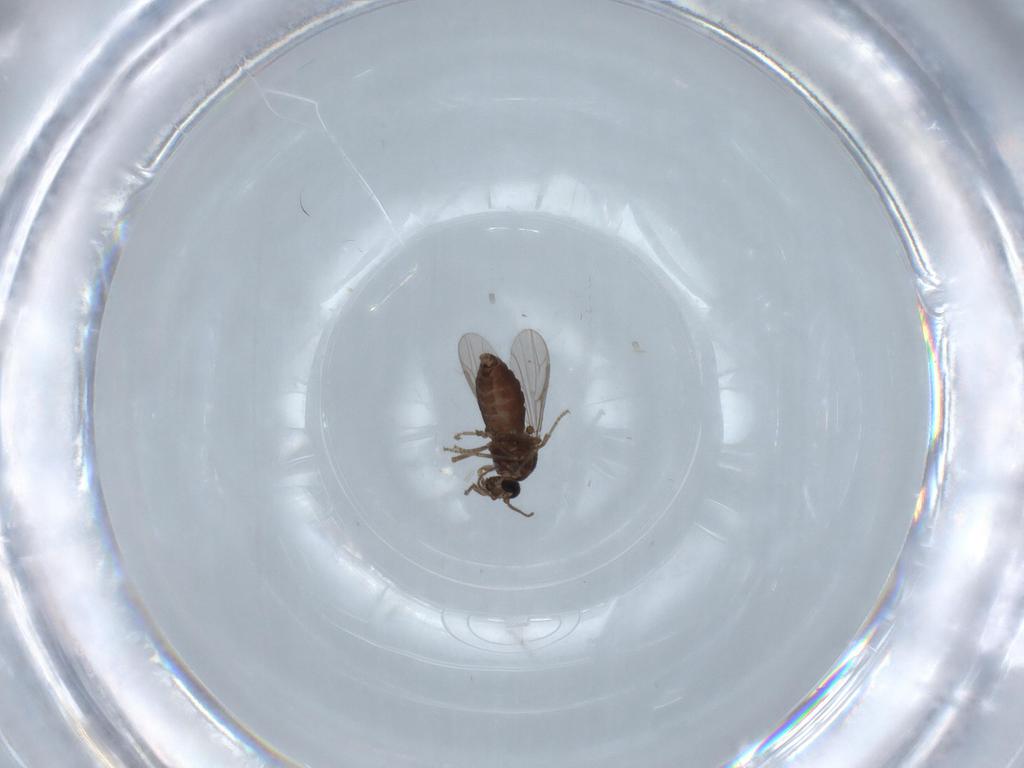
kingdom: Animalia
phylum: Arthropoda
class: Insecta
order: Diptera
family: Ceratopogonidae
